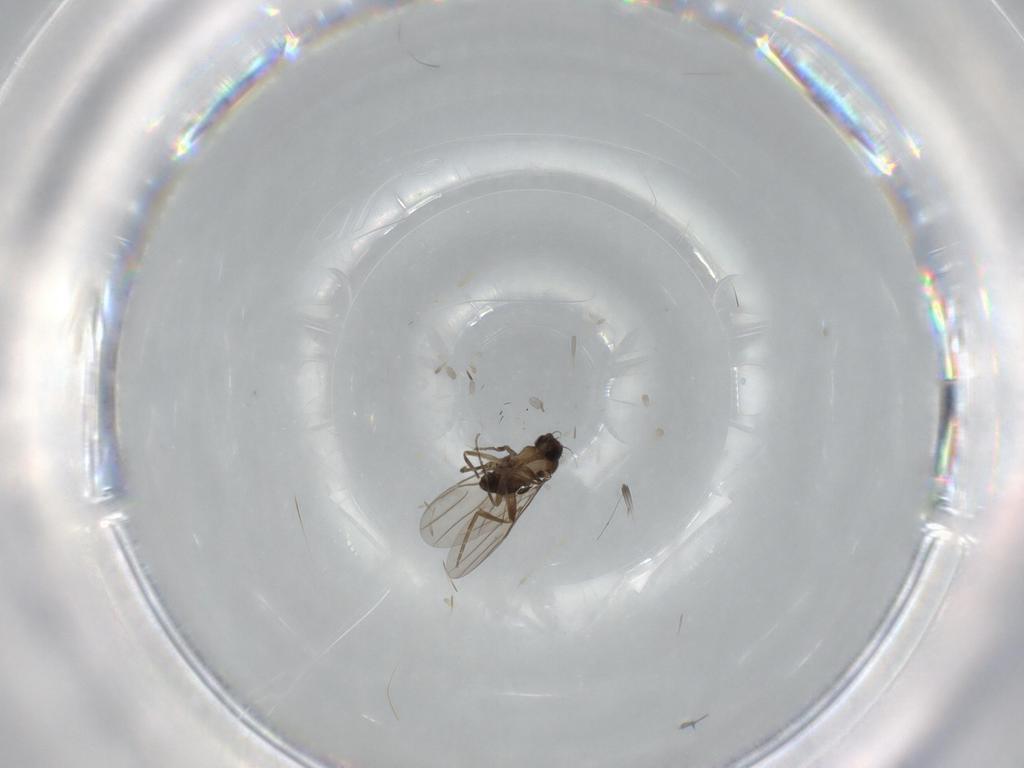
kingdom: Animalia
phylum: Arthropoda
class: Insecta
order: Diptera
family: Phoridae
